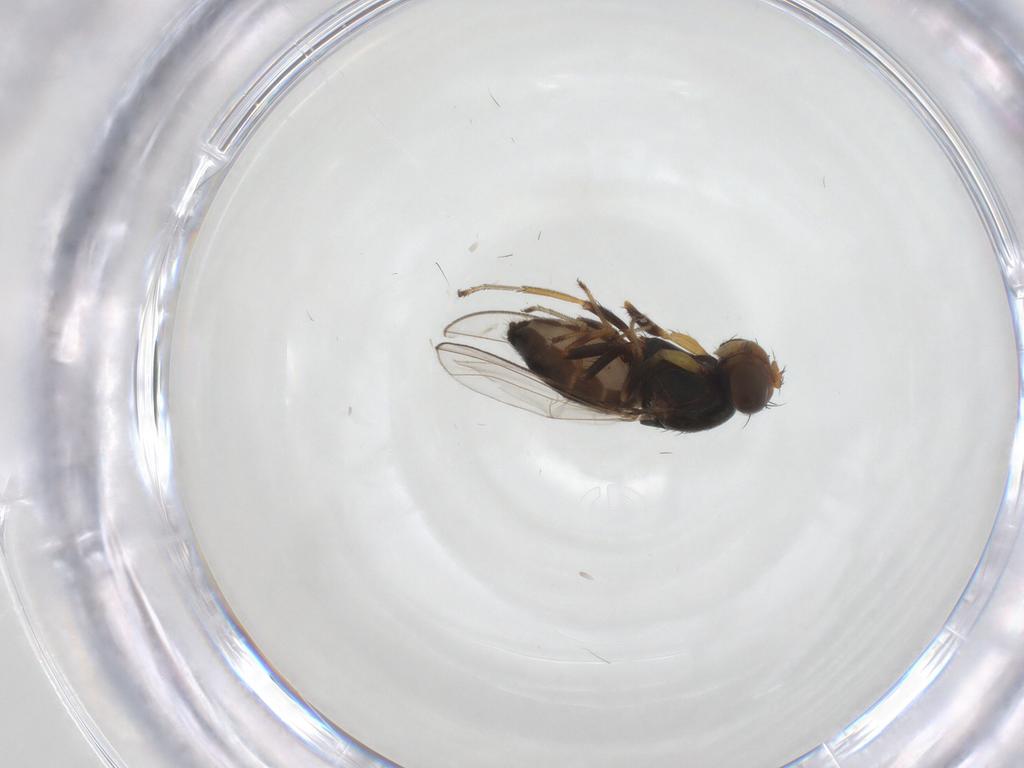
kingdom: Animalia
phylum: Arthropoda
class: Insecta
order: Diptera
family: Ephydridae
